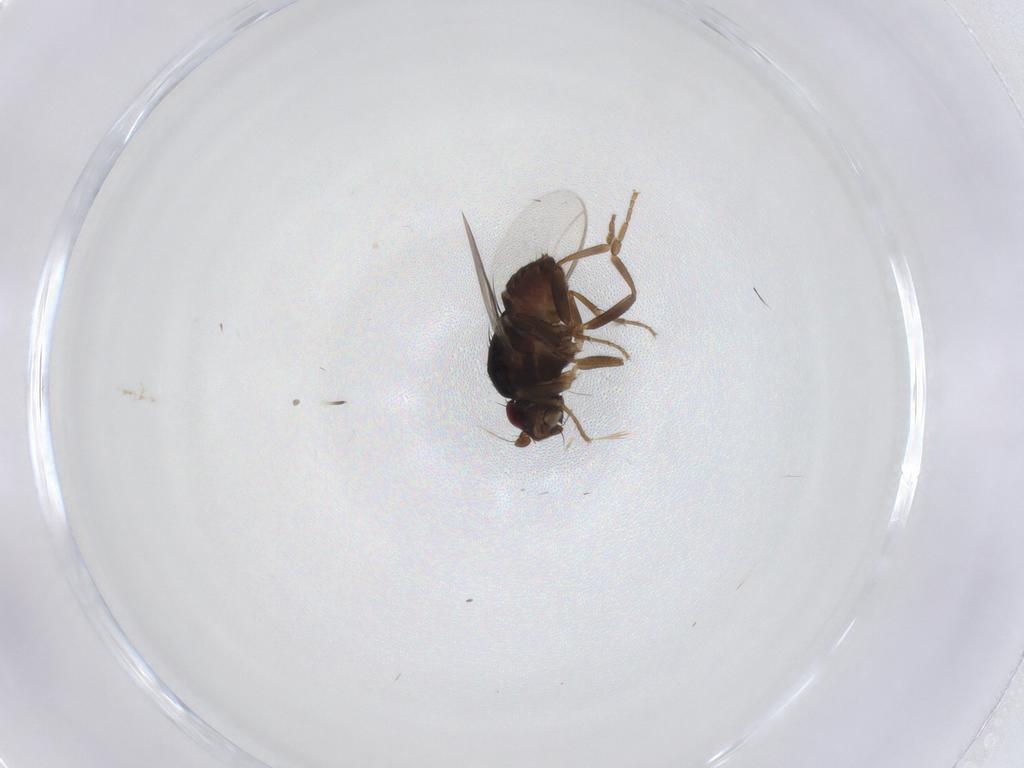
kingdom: Animalia
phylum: Arthropoda
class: Insecta
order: Diptera
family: Sphaeroceridae
